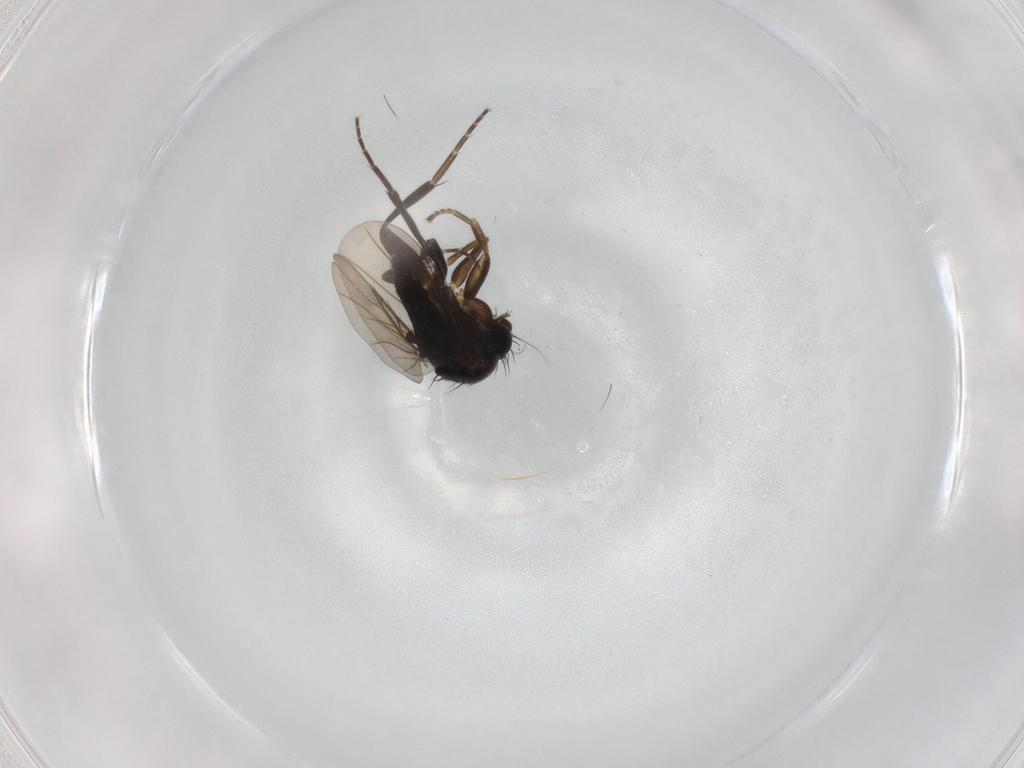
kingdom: Animalia
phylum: Arthropoda
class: Insecta
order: Diptera
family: Phoridae
